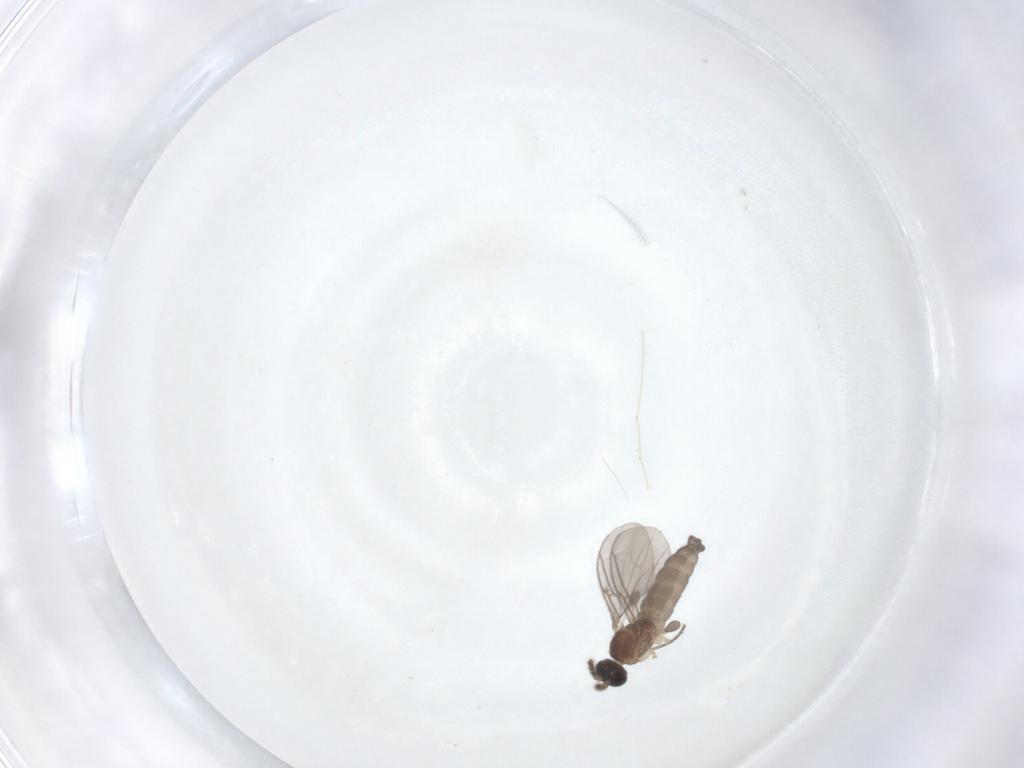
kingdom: Animalia
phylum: Arthropoda
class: Insecta
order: Diptera
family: Sciaridae
